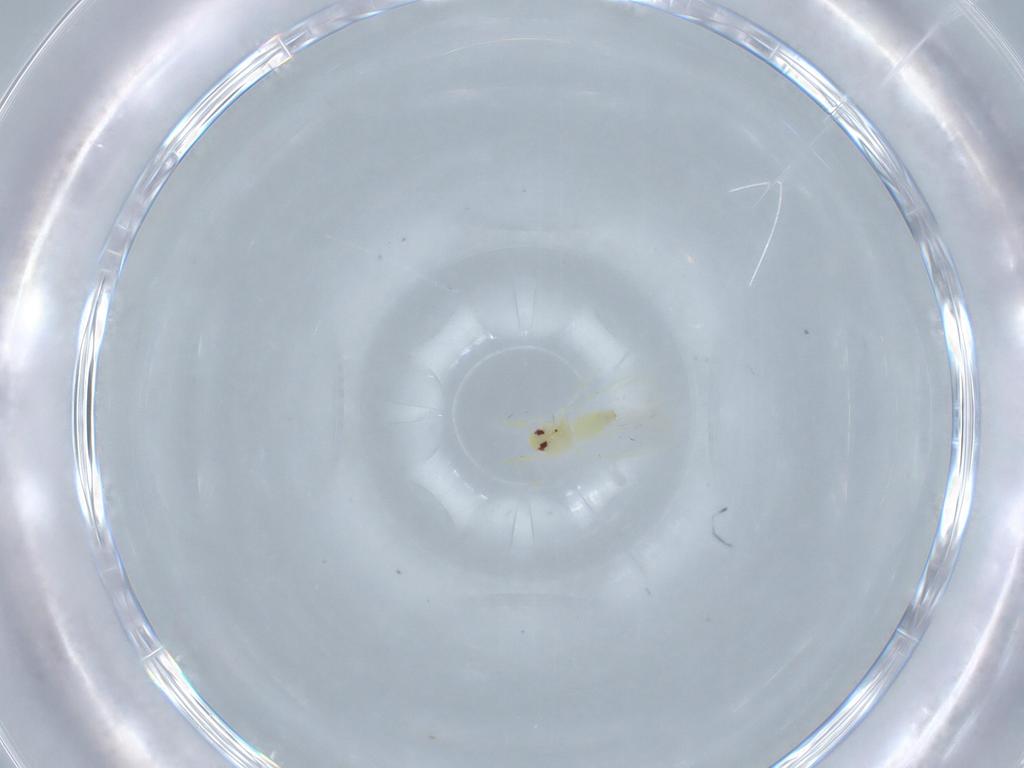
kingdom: Animalia
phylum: Arthropoda
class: Insecta
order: Hemiptera
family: Aleyrodidae
